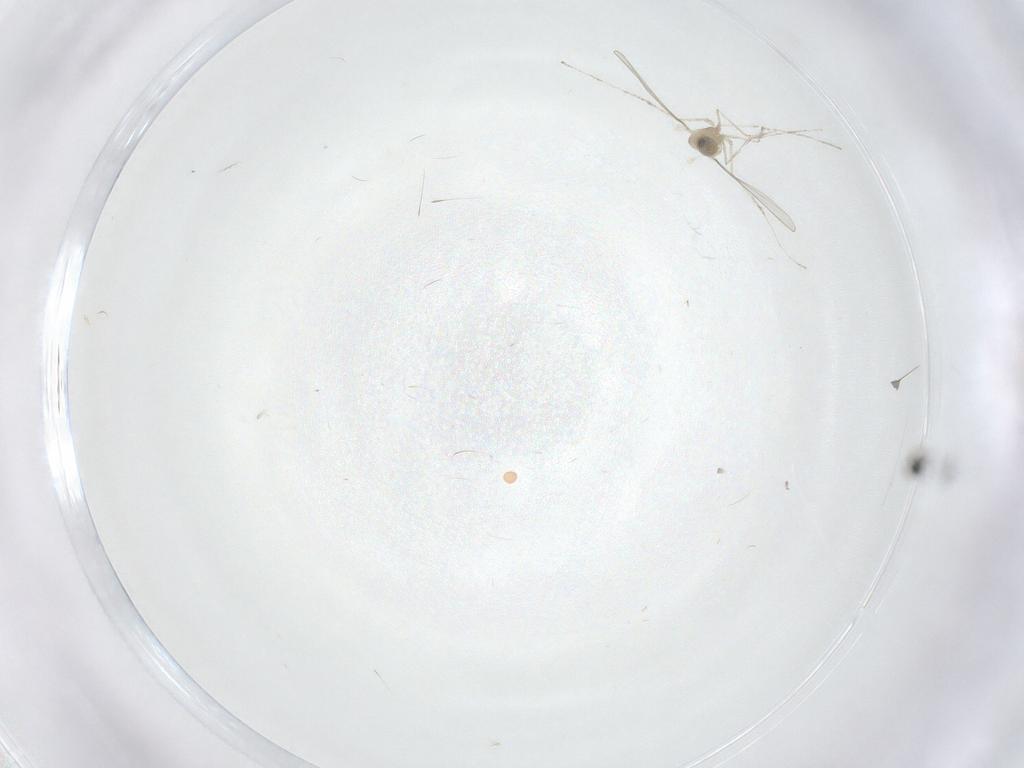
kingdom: Animalia
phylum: Arthropoda
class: Insecta
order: Diptera
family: Cecidomyiidae
